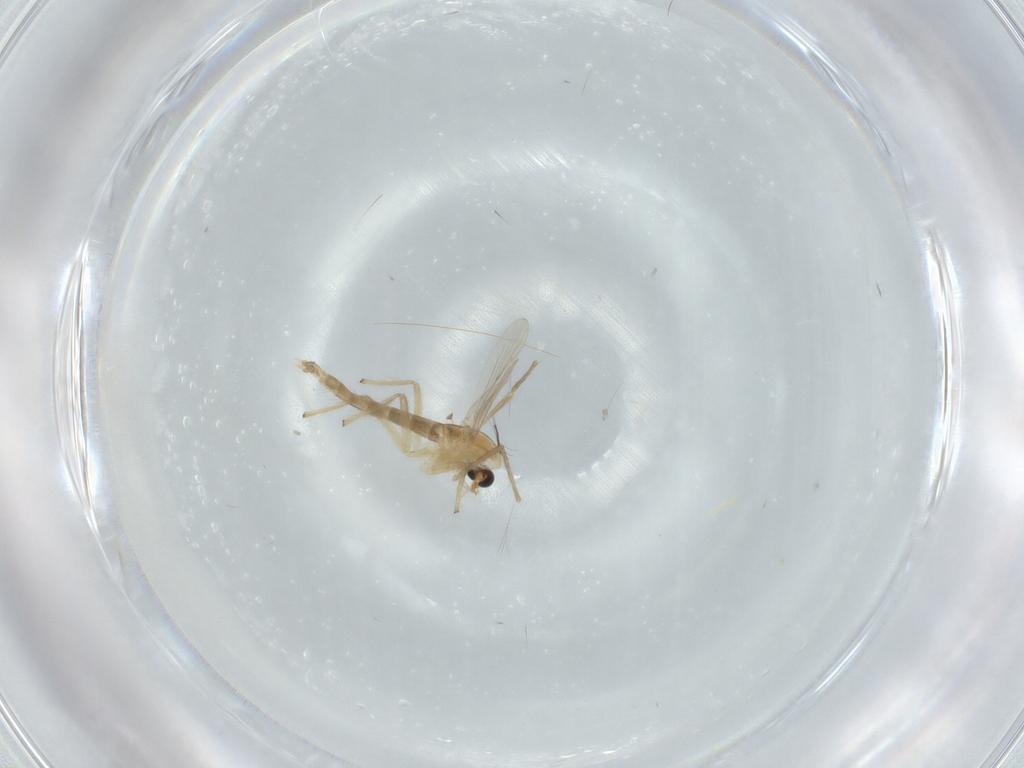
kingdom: Animalia
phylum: Arthropoda
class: Insecta
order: Diptera
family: Chironomidae
